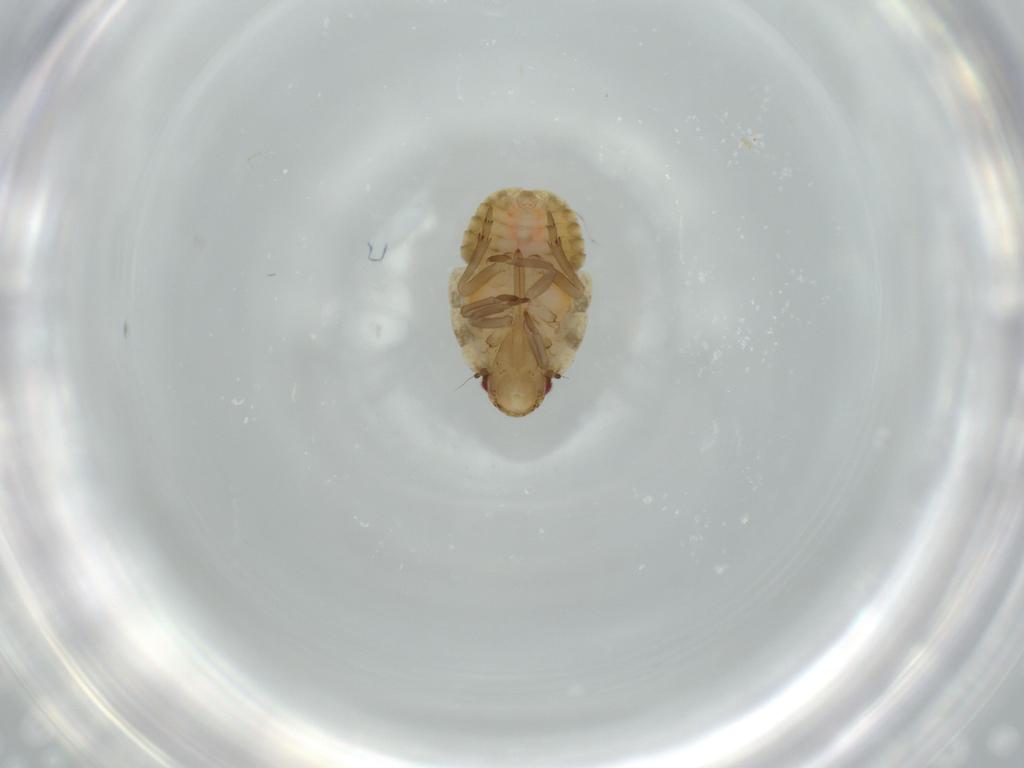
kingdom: Animalia
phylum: Arthropoda
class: Insecta
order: Hemiptera
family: Flatidae
